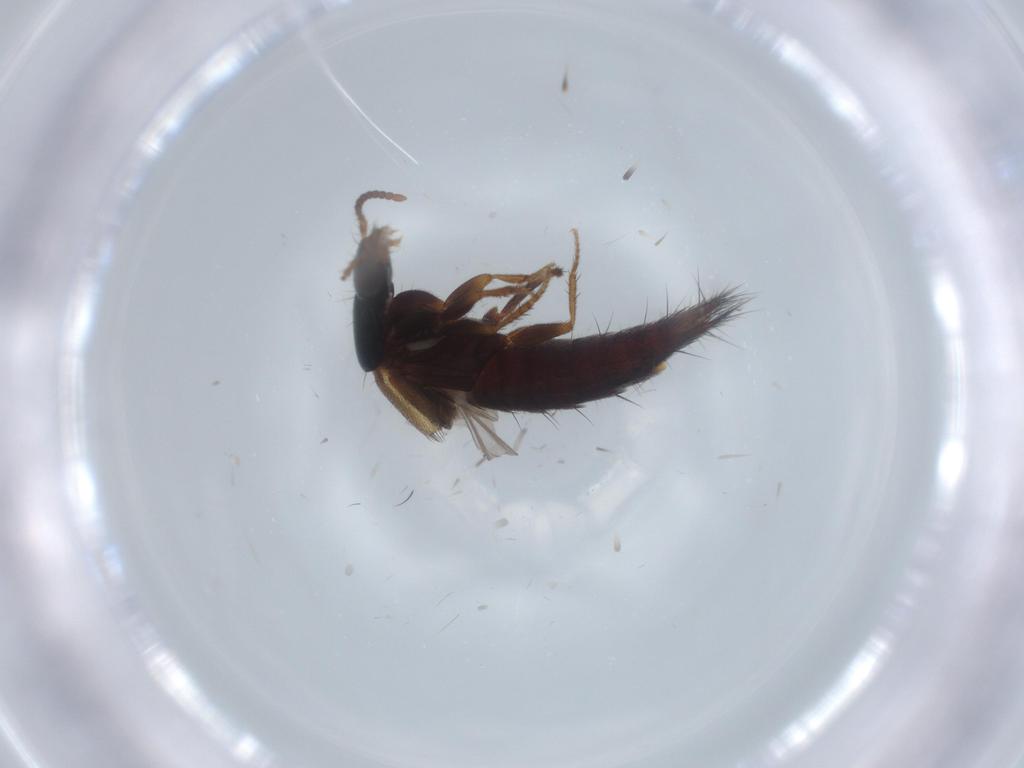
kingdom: Animalia
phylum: Arthropoda
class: Insecta
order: Coleoptera
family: Staphylinidae
